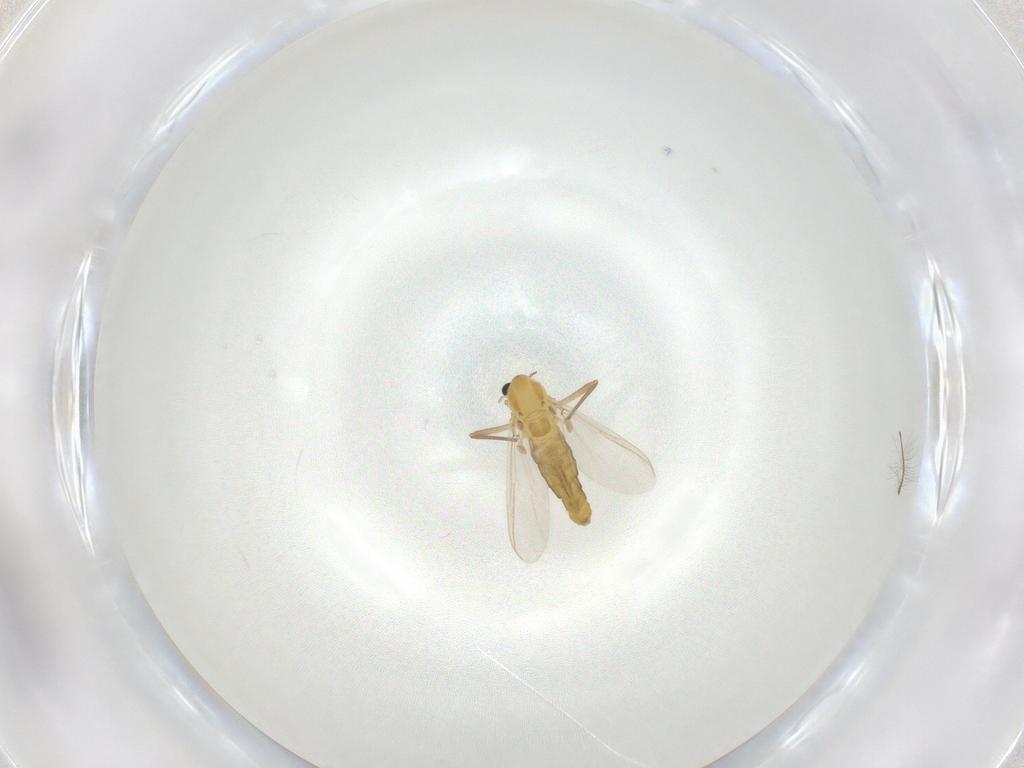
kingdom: Animalia
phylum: Arthropoda
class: Insecta
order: Diptera
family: Chironomidae
